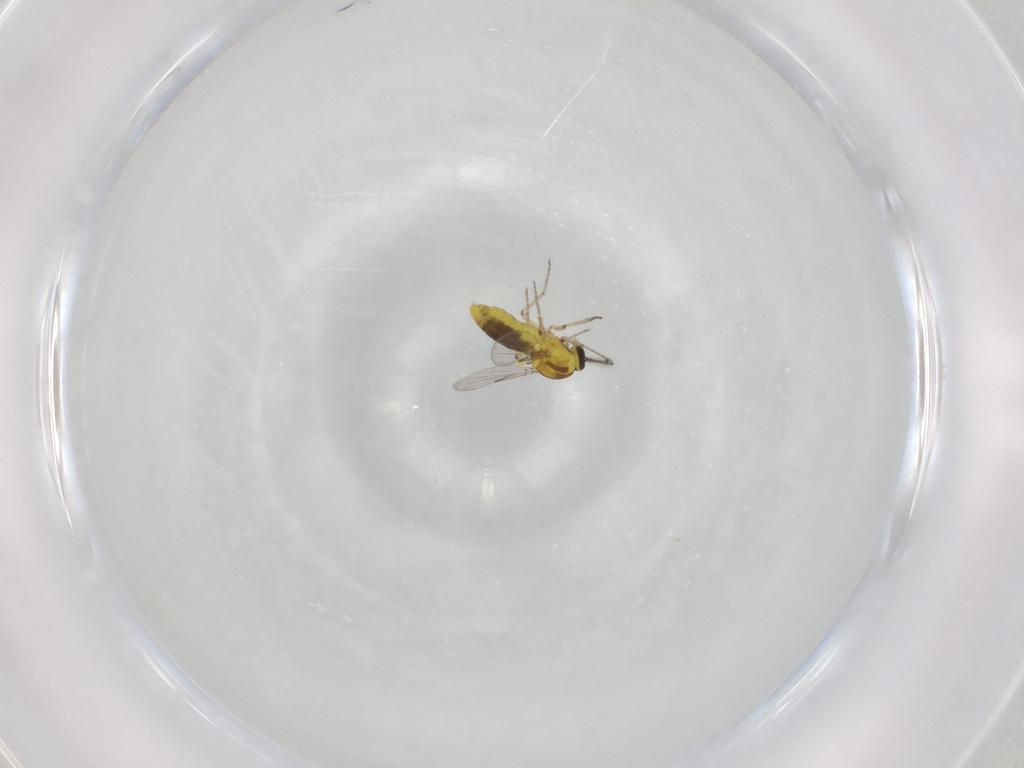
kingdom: Animalia
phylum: Arthropoda
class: Insecta
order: Diptera
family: Ceratopogonidae
